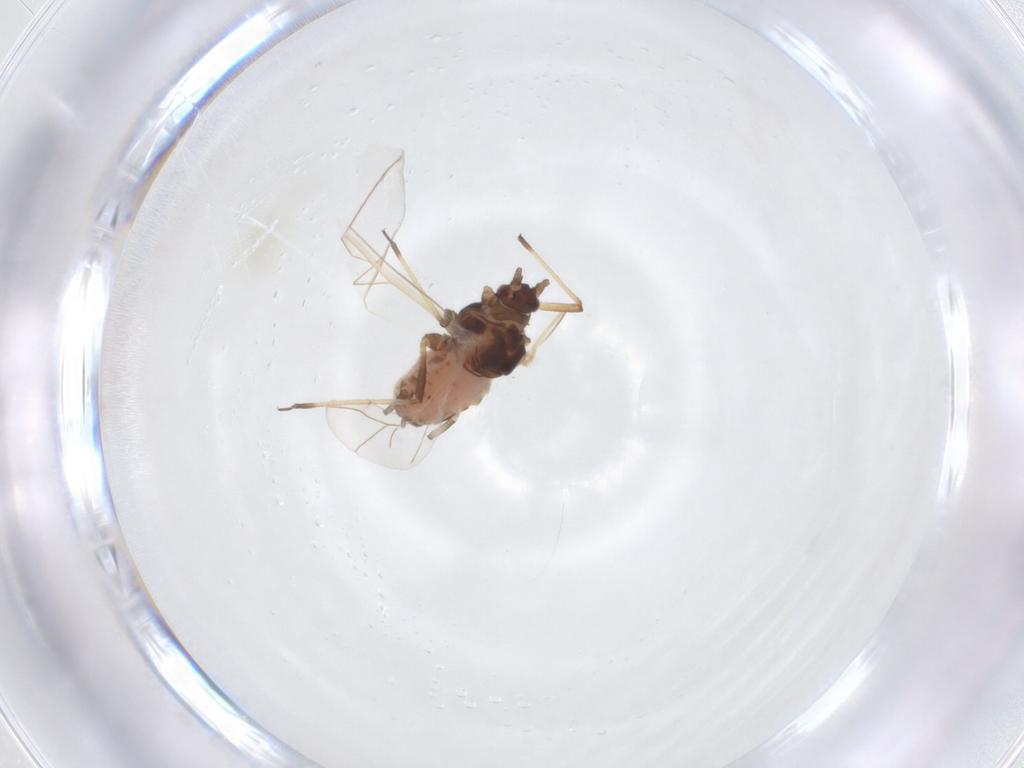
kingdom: Animalia
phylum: Arthropoda
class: Insecta
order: Hemiptera
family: Aphididae
